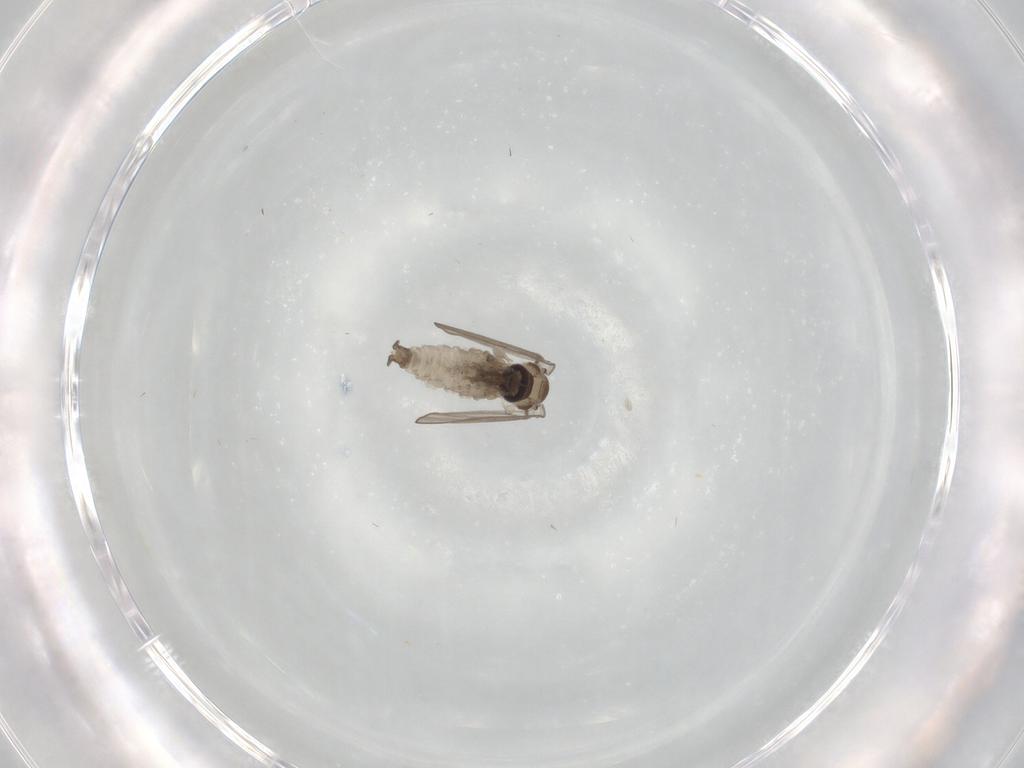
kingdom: Animalia
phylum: Arthropoda
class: Insecta
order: Diptera
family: Psychodidae
